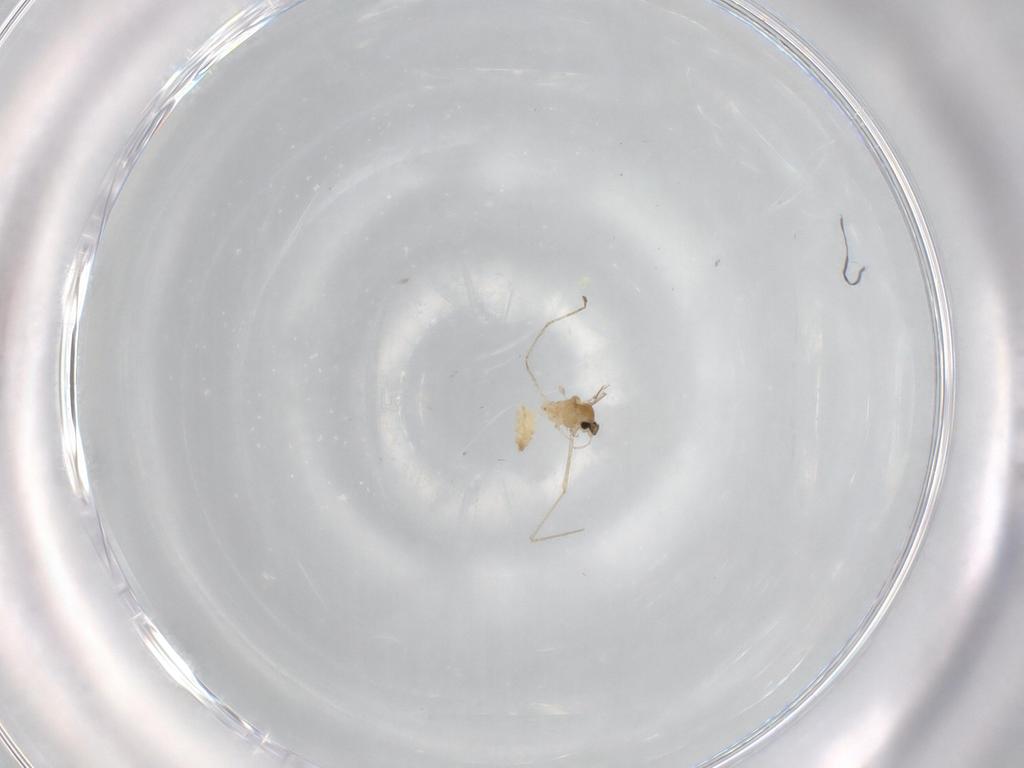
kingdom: Animalia
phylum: Arthropoda
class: Insecta
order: Diptera
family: Cecidomyiidae
